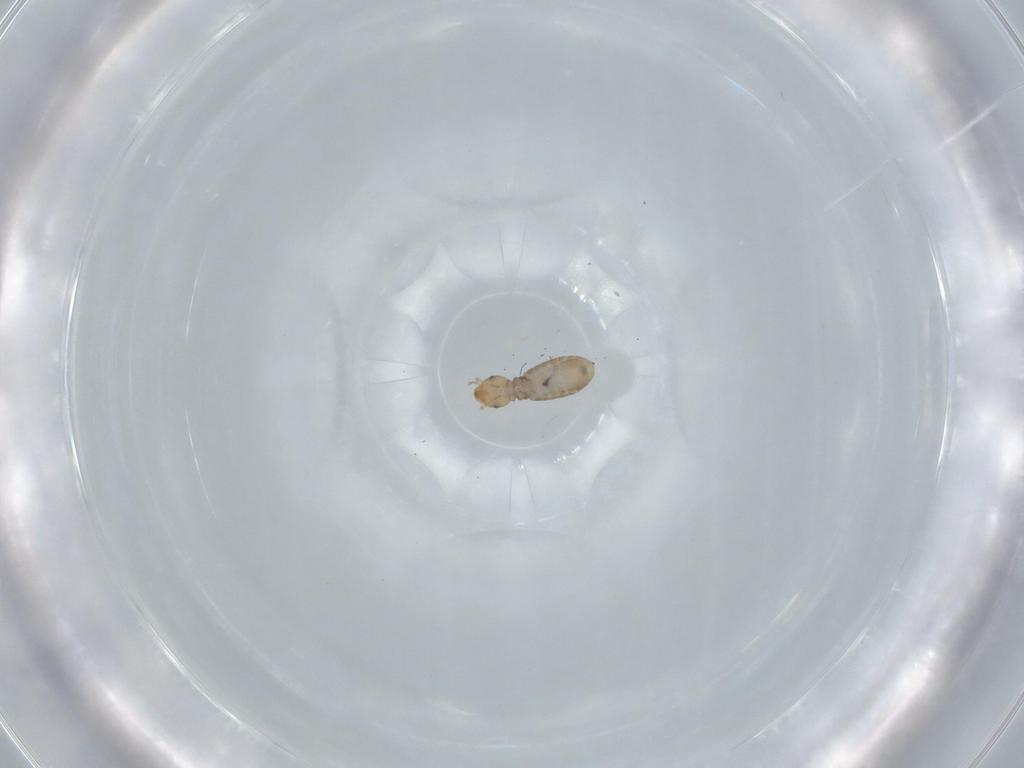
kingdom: Animalia
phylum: Arthropoda
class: Insecta
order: Psocodea
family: Liposcelididae
